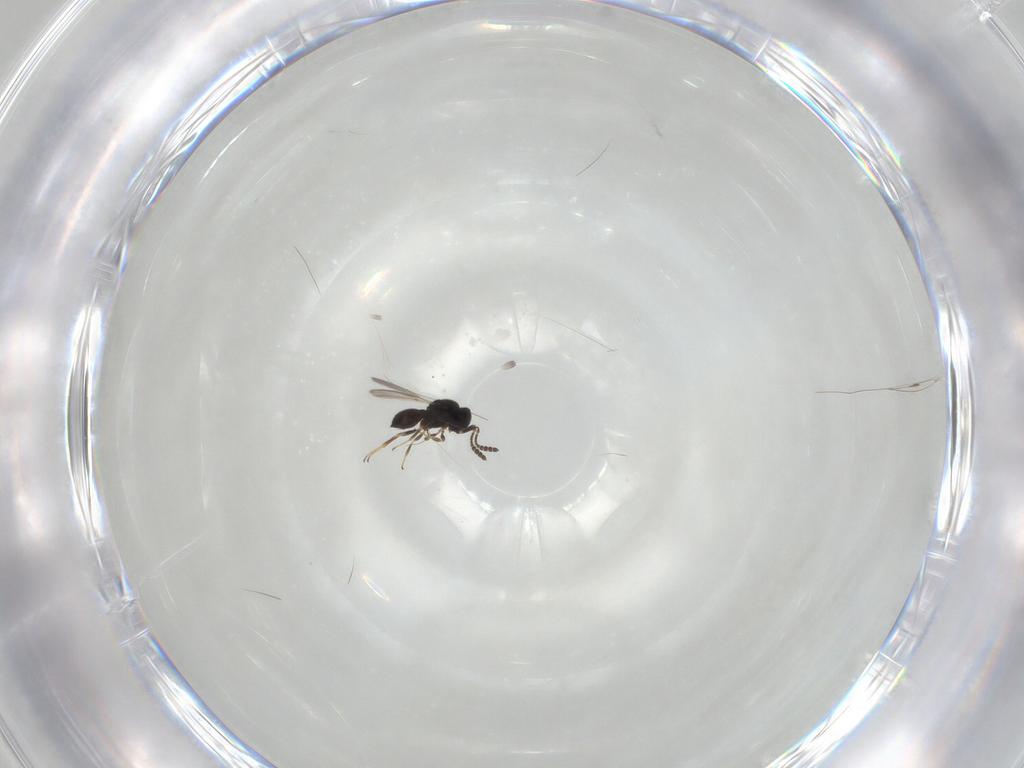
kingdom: Animalia
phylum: Arthropoda
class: Insecta
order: Hymenoptera
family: Scelionidae
